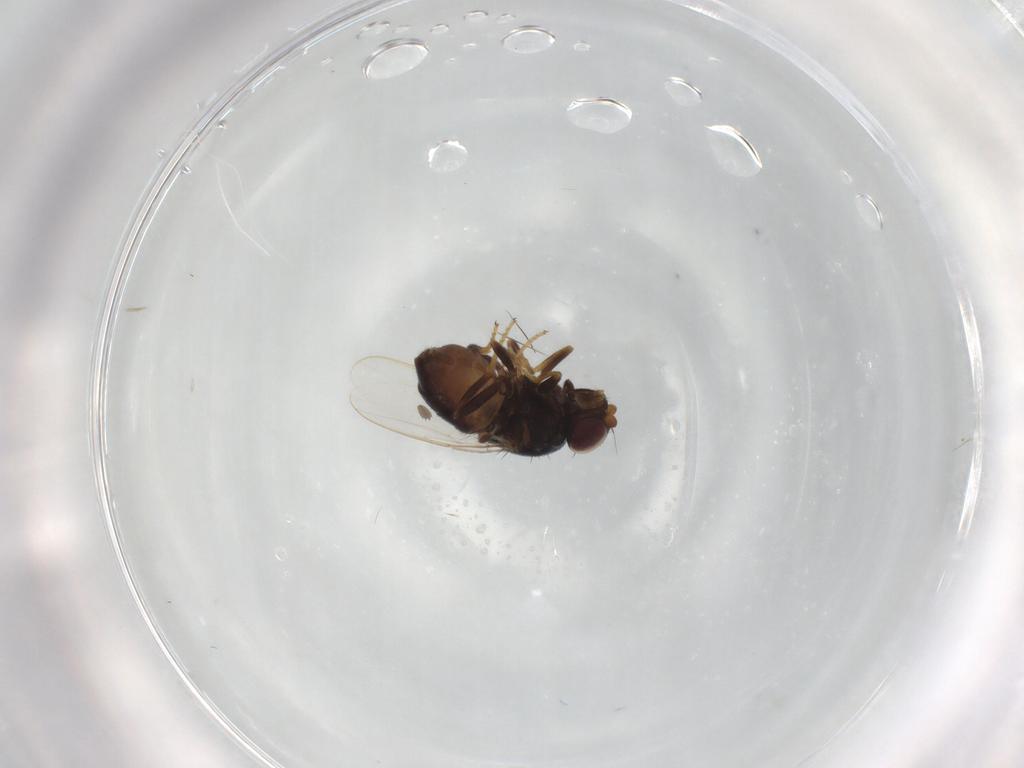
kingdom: Animalia
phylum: Arthropoda
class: Insecta
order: Diptera
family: Chloropidae
